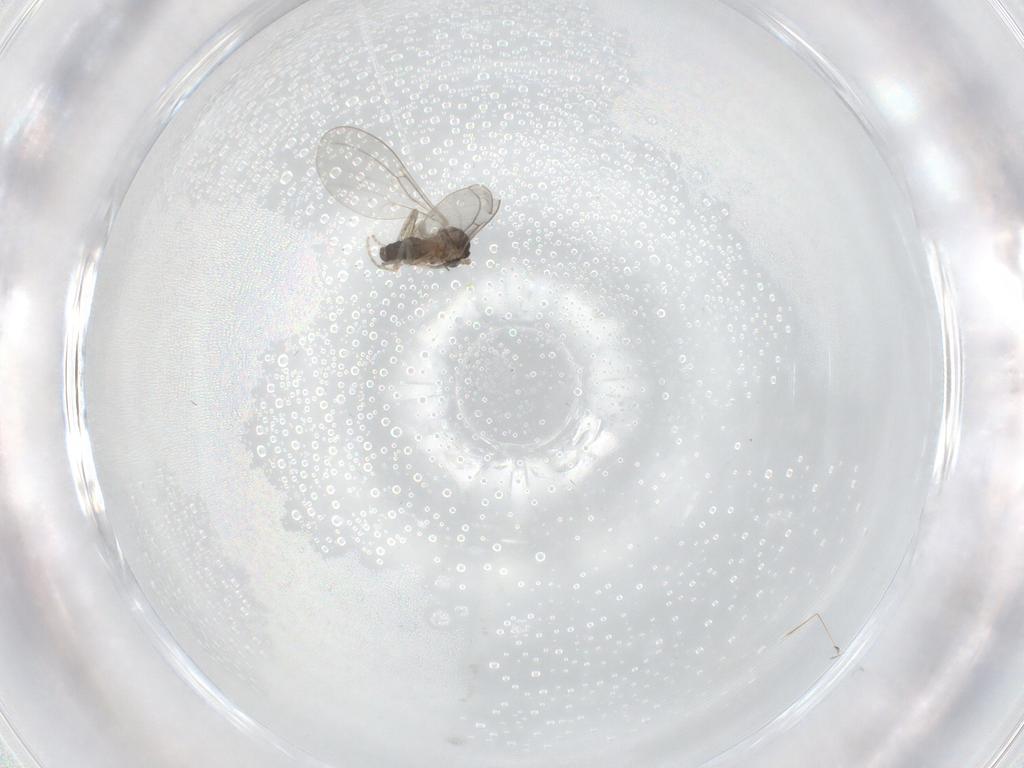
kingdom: Animalia
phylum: Arthropoda
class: Insecta
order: Diptera
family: Cecidomyiidae
